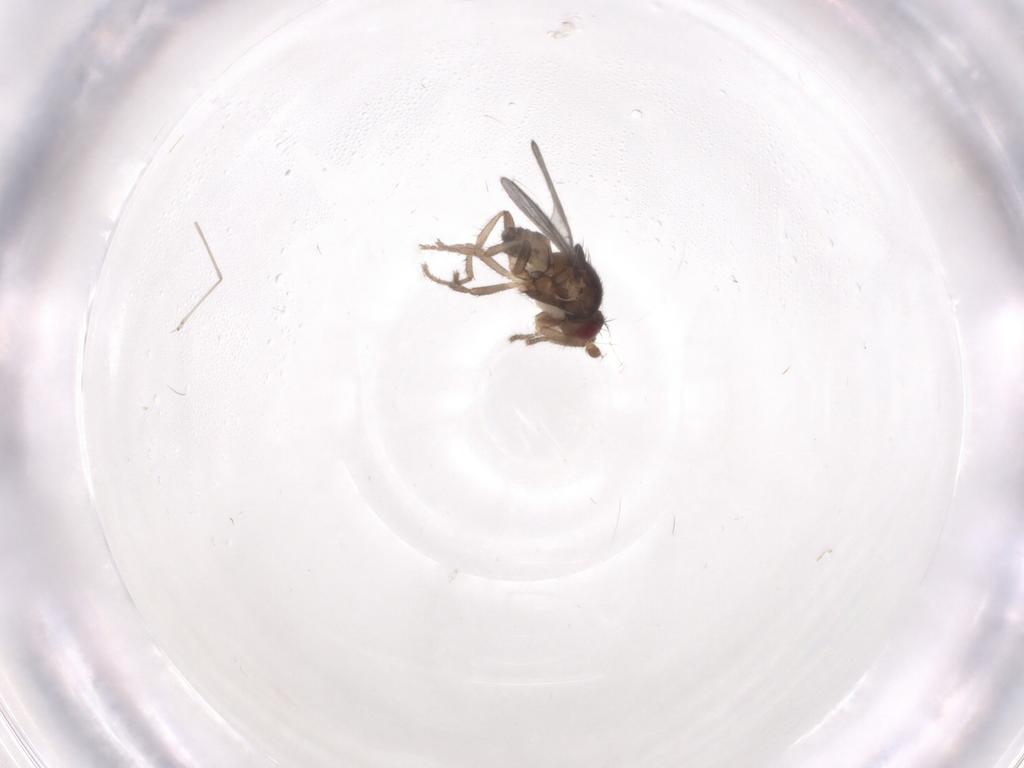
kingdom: Animalia
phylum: Arthropoda
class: Insecta
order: Diptera
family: Sphaeroceridae
